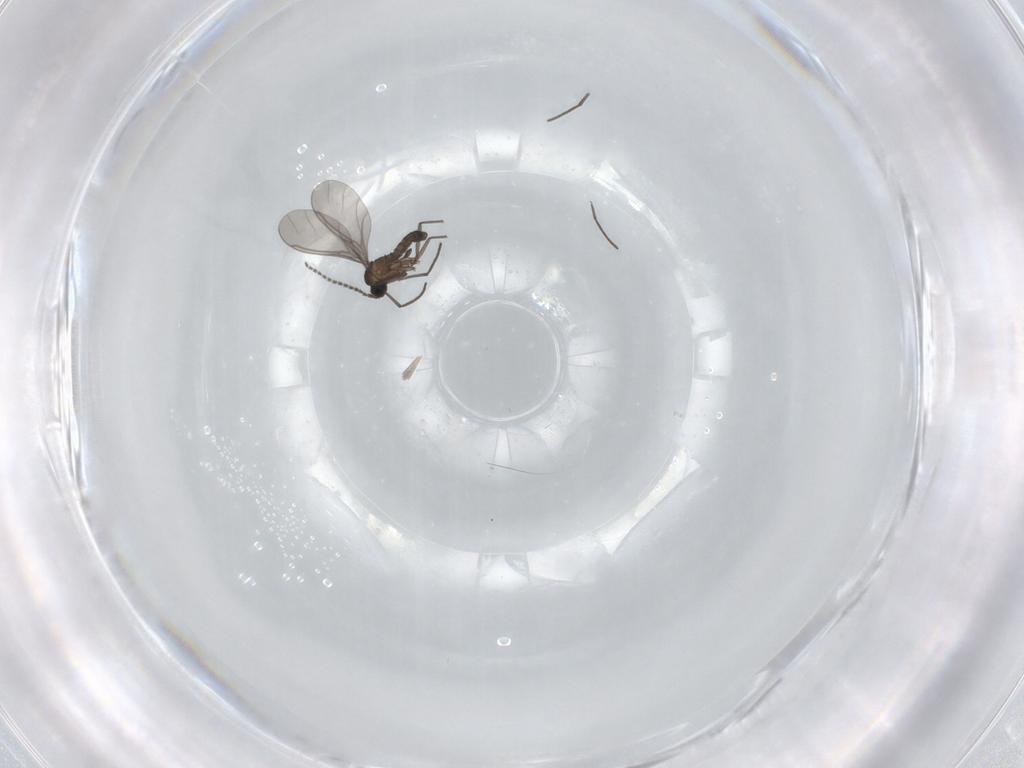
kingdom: Animalia
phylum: Arthropoda
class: Insecta
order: Diptera
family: Sciaridae
